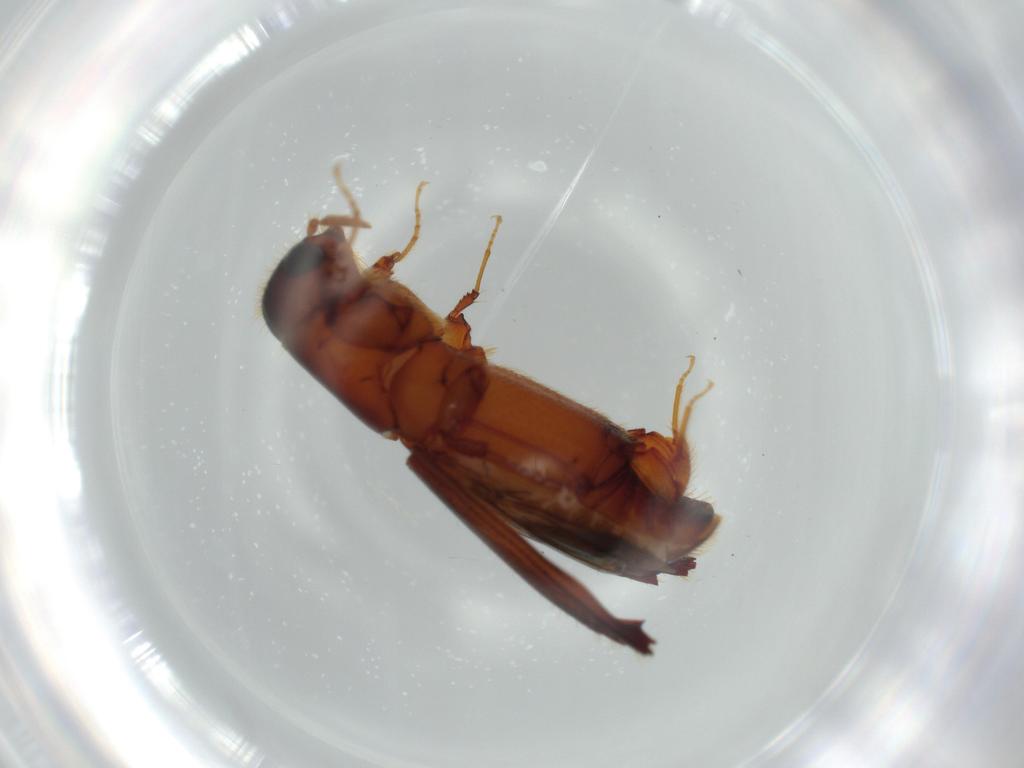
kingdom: Animalia
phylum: Arthropoda
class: Insecta
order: Coleoptera
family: Curculionidae
